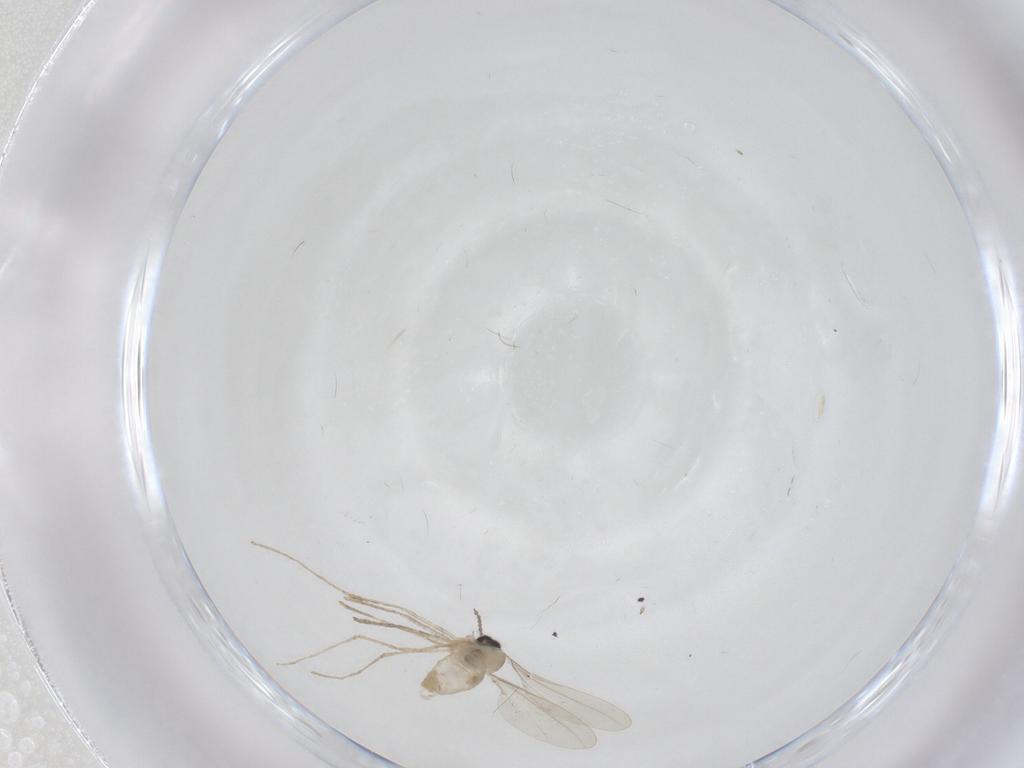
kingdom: Animalia
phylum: Arthropoda
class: Insecta
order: Diptera
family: Cecidomyiidae
